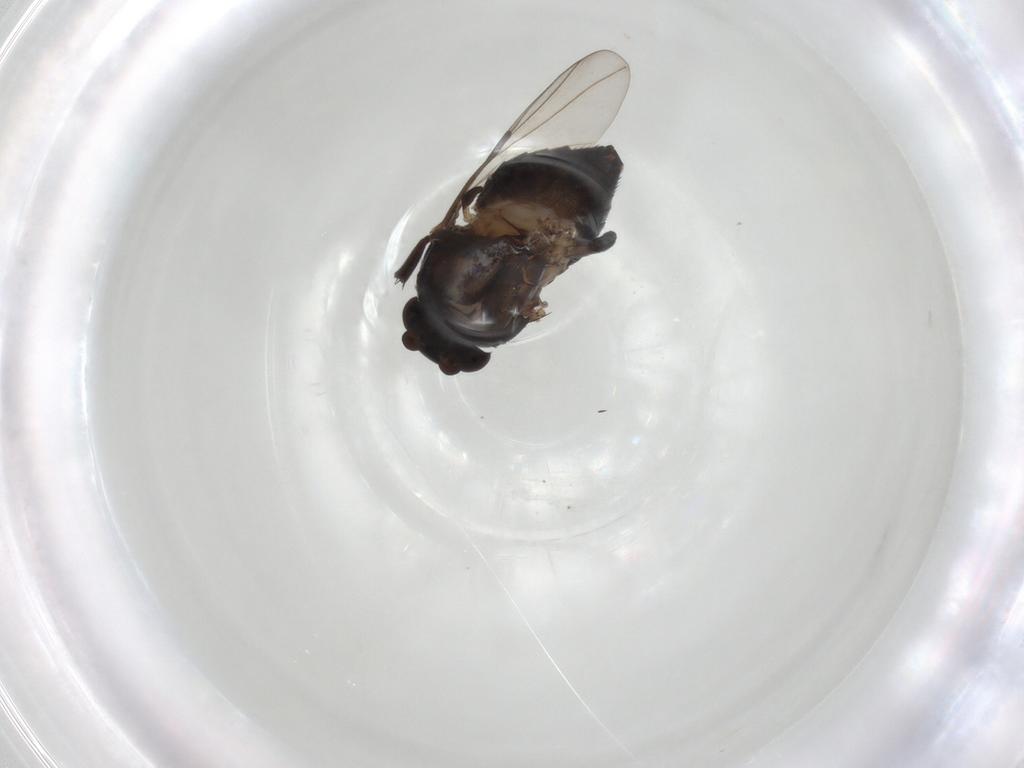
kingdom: Animalia
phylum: Arthropoda
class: Insecta
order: Diptera
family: Phoridae
